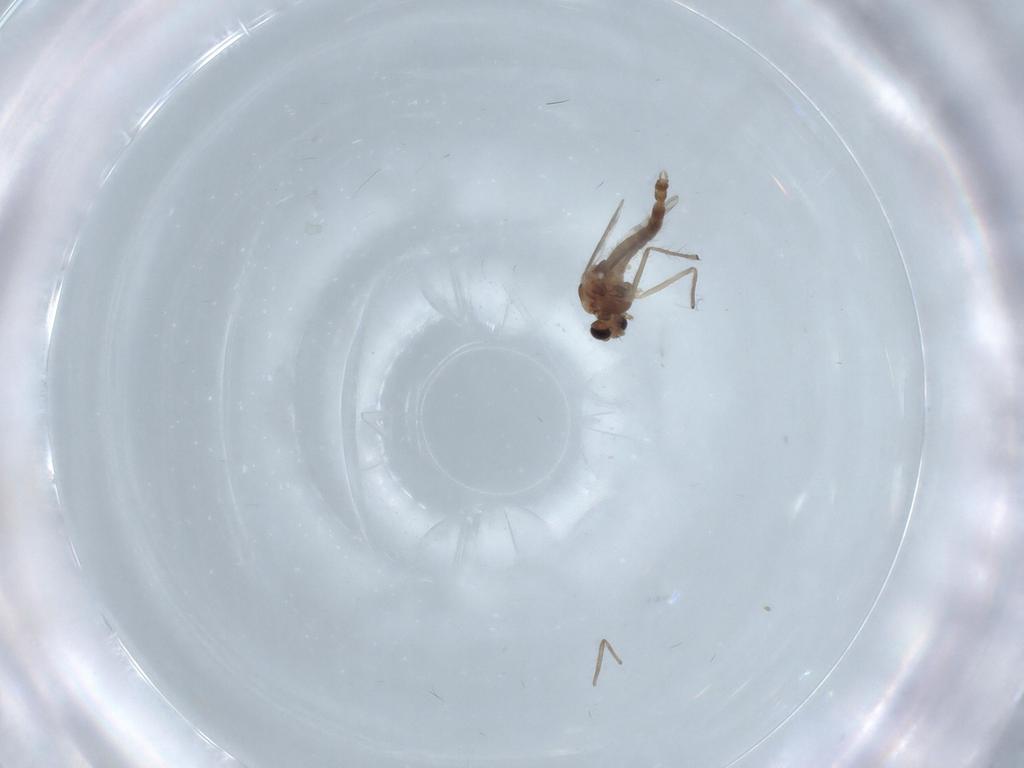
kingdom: Animalia
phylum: Arthropoda
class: Insecta
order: Diptera
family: Chironomidae
